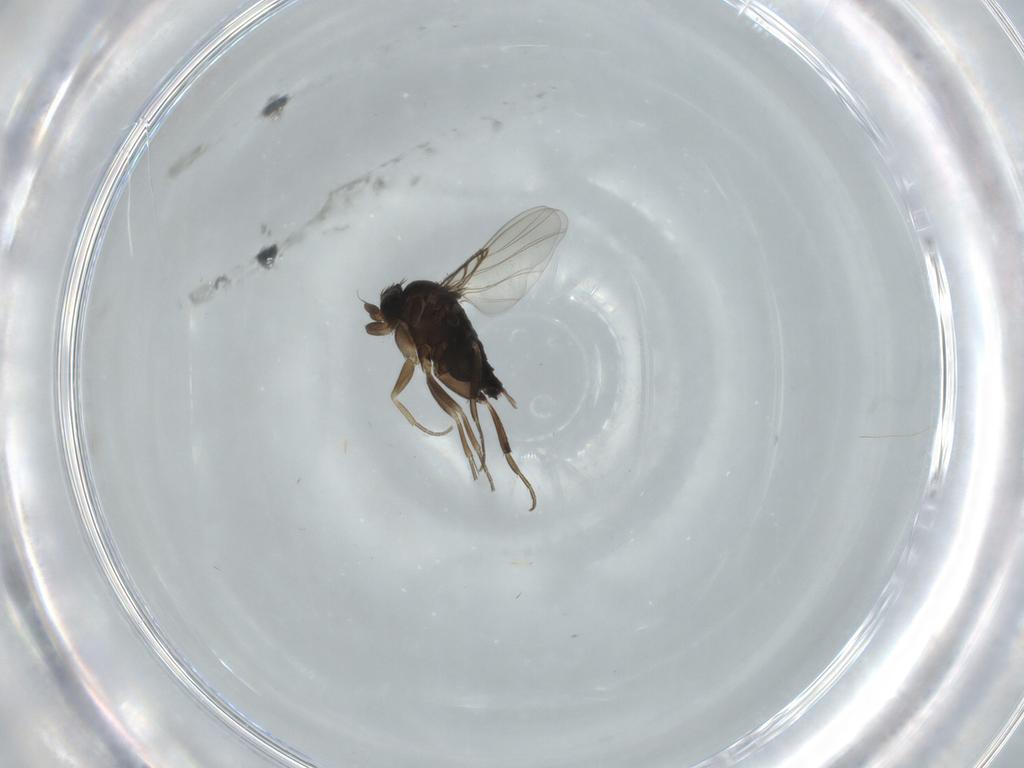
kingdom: Animalia
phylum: Arthropoda
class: Insecta
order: Diptera
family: Phoridae
